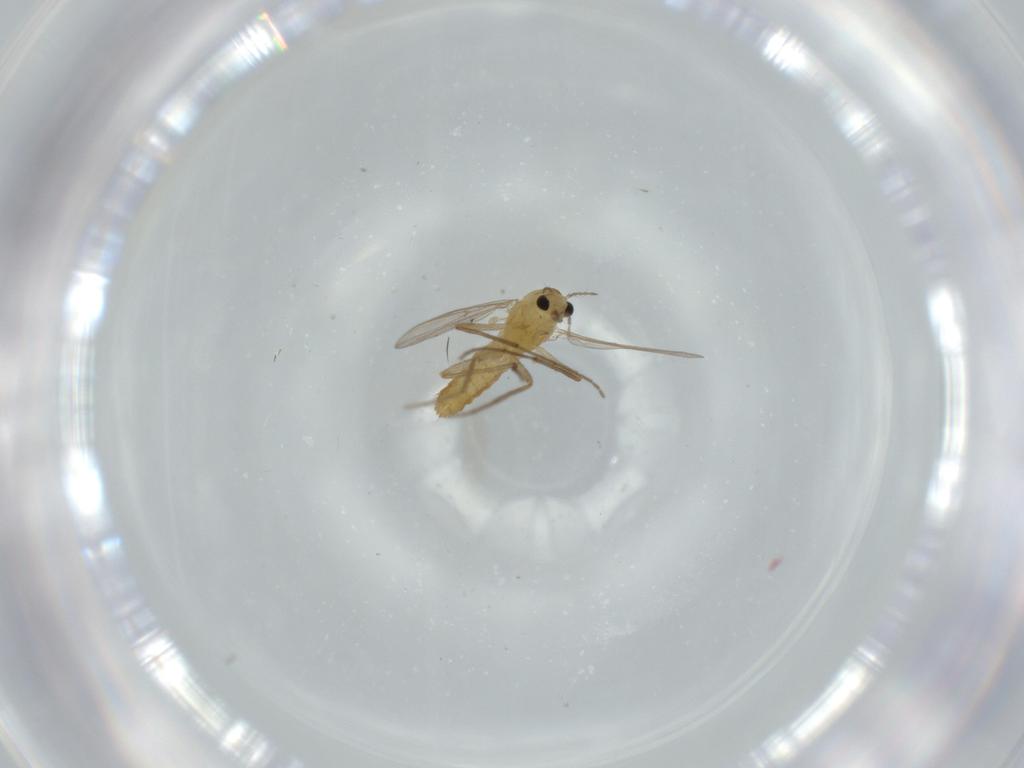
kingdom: Animalia
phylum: Arthropoda
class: Insecta
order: Diptera
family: Chironomidae
